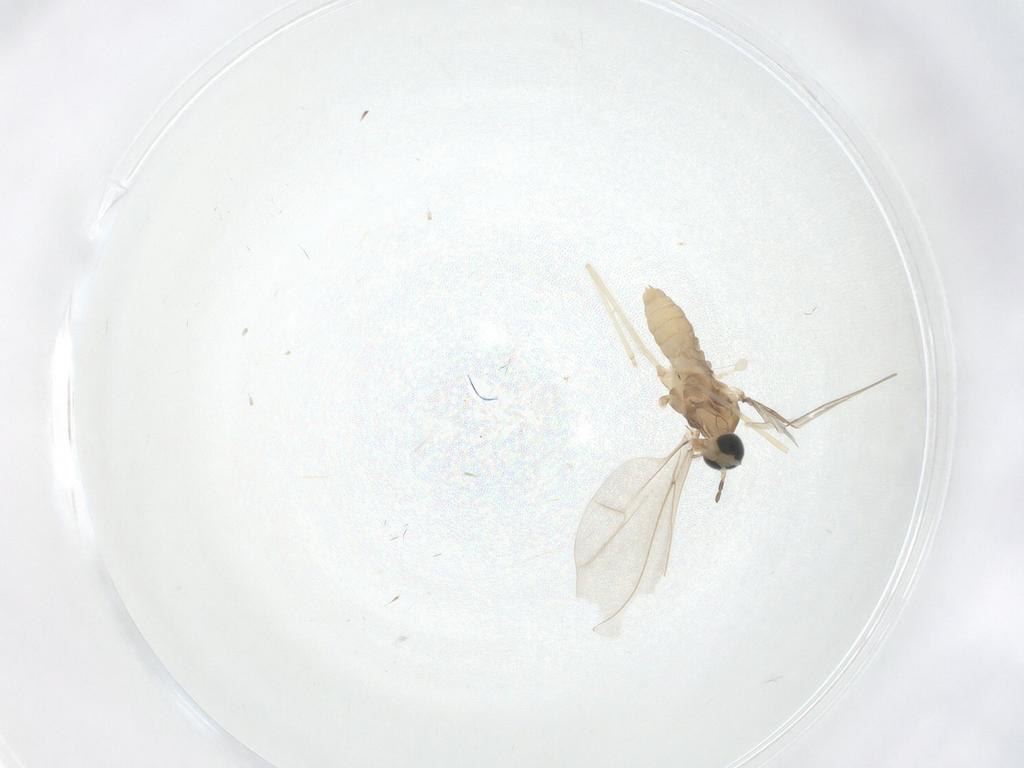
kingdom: Animalia
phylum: Arthropoda
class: Insecta
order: Diptera
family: Cecidomyiidae
